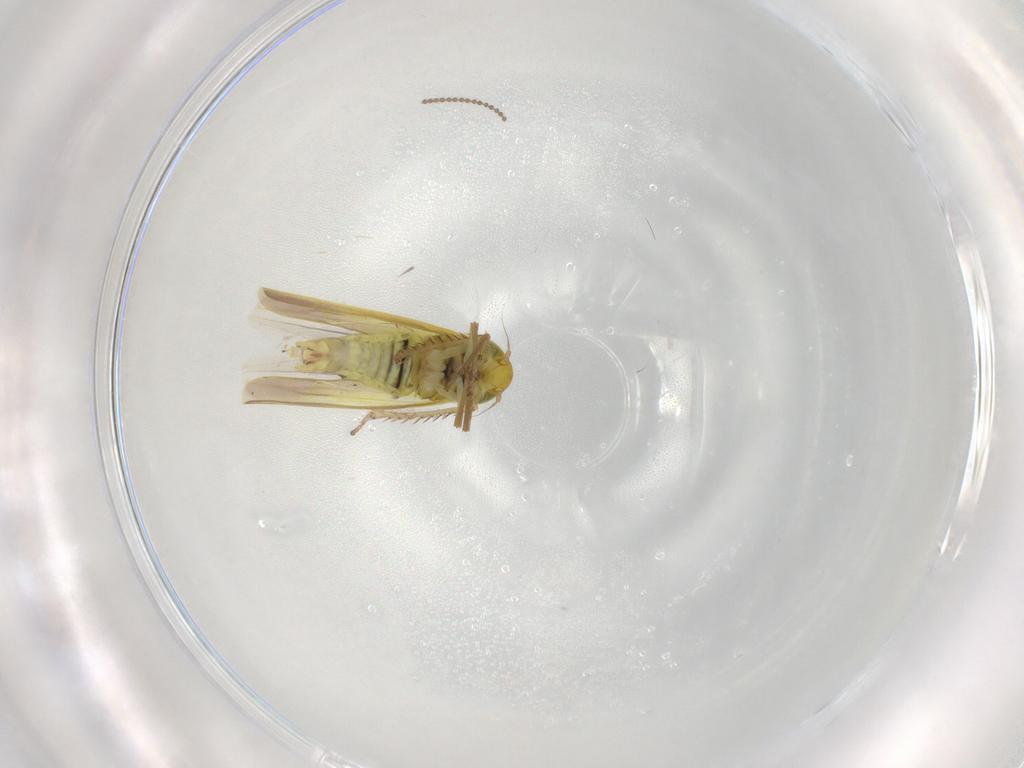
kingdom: Animalia
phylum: Arthropoda
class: Insecta
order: Hemiptera
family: Cicadellidae
